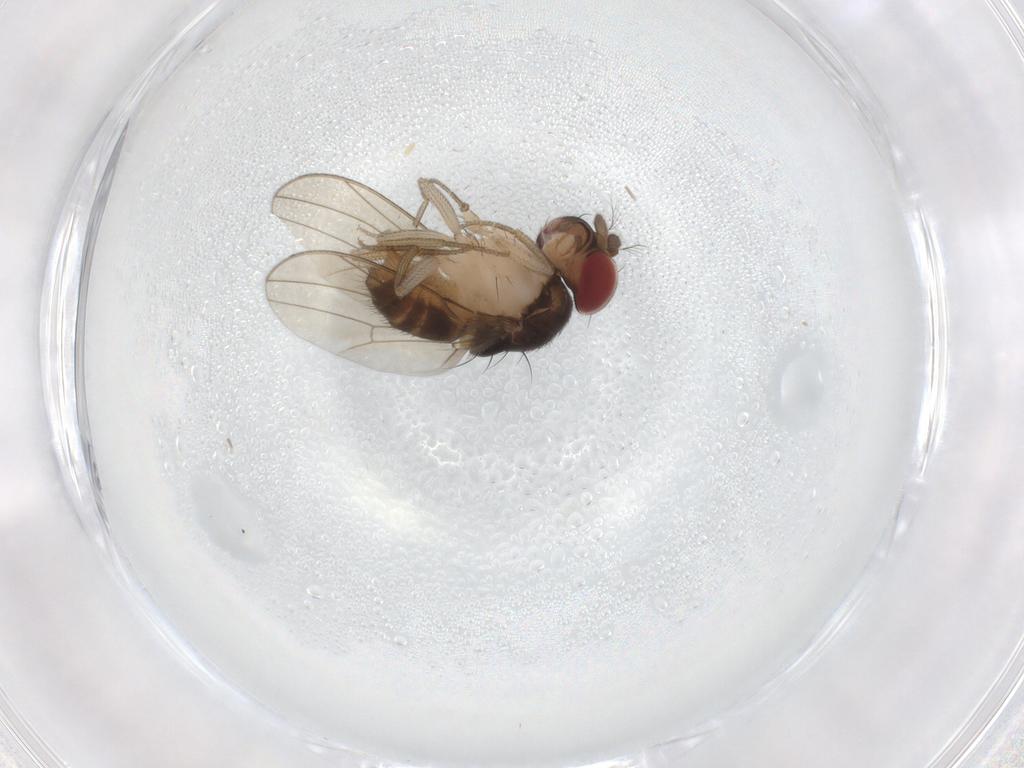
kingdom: Animalia
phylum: Arthropoda
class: Insecta
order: Diptera
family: Drosophilidae
